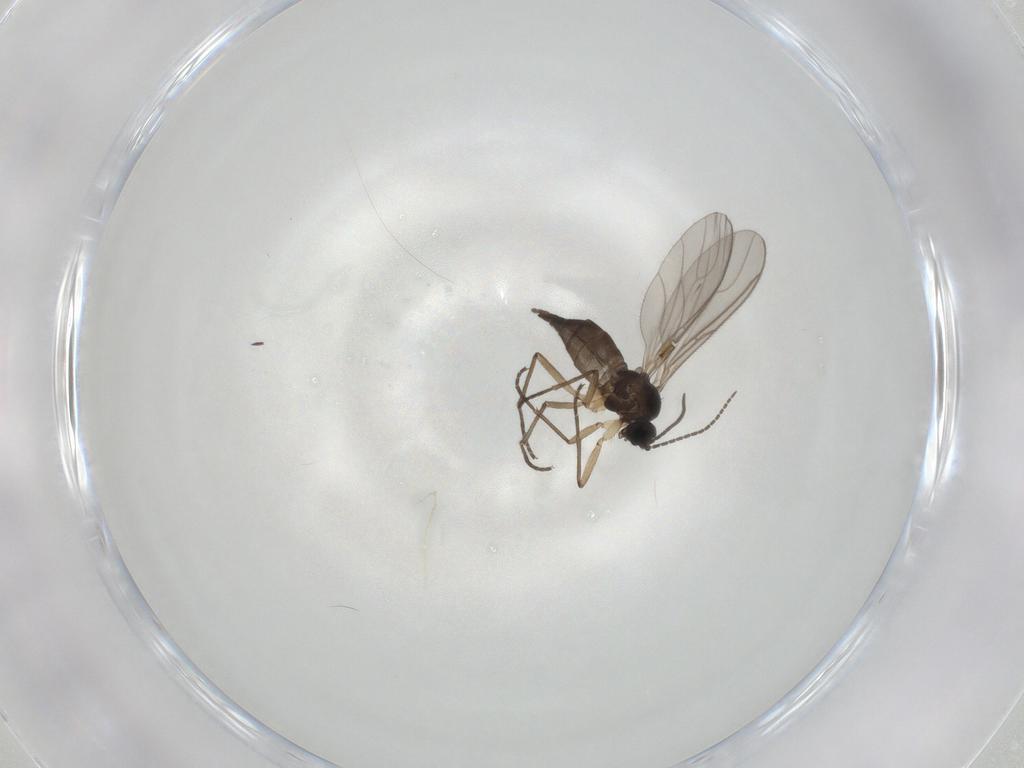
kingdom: Animalia
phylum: Arthropoda
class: Insecta
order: Diptera
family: Sciaridae
